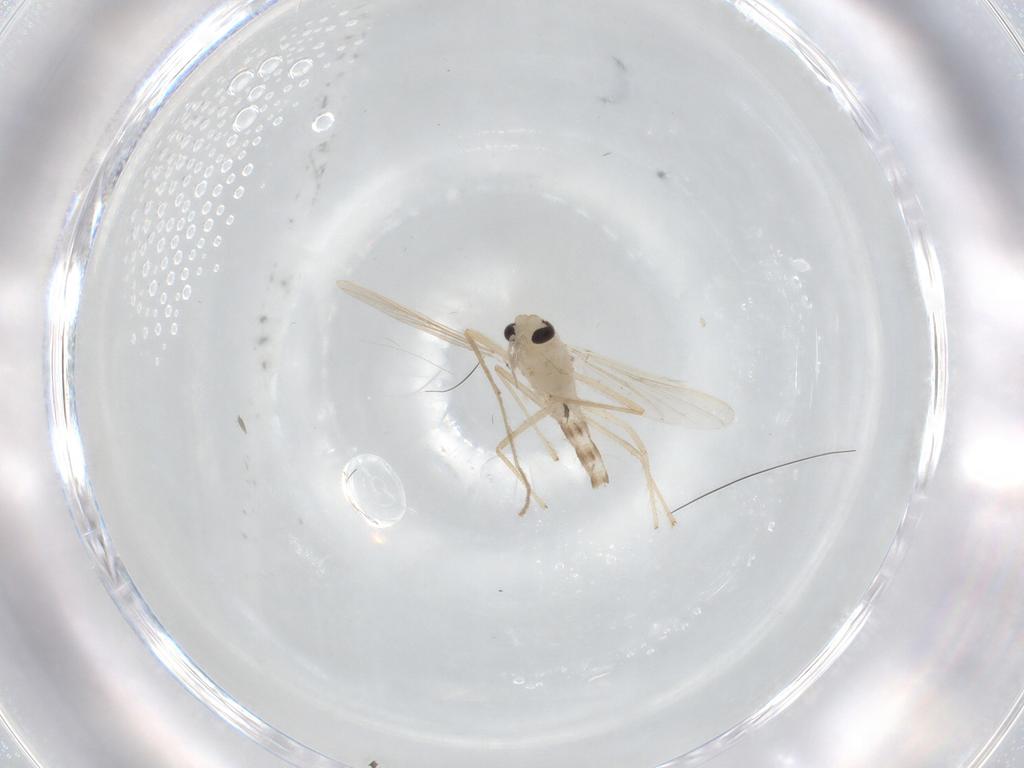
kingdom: Animalia
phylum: Arthropoda
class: Insecta
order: Diptera
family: Chironomidae
